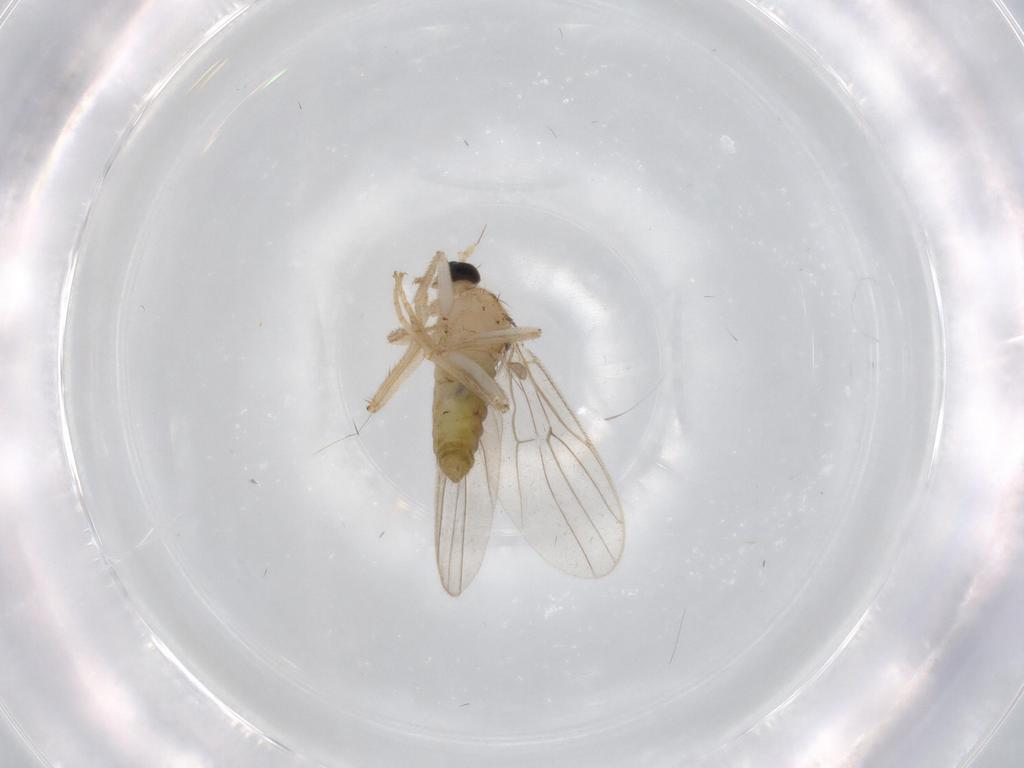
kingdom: Animalia
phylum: Arthropoda
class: Insecta
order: Diptera
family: Hybotidae
